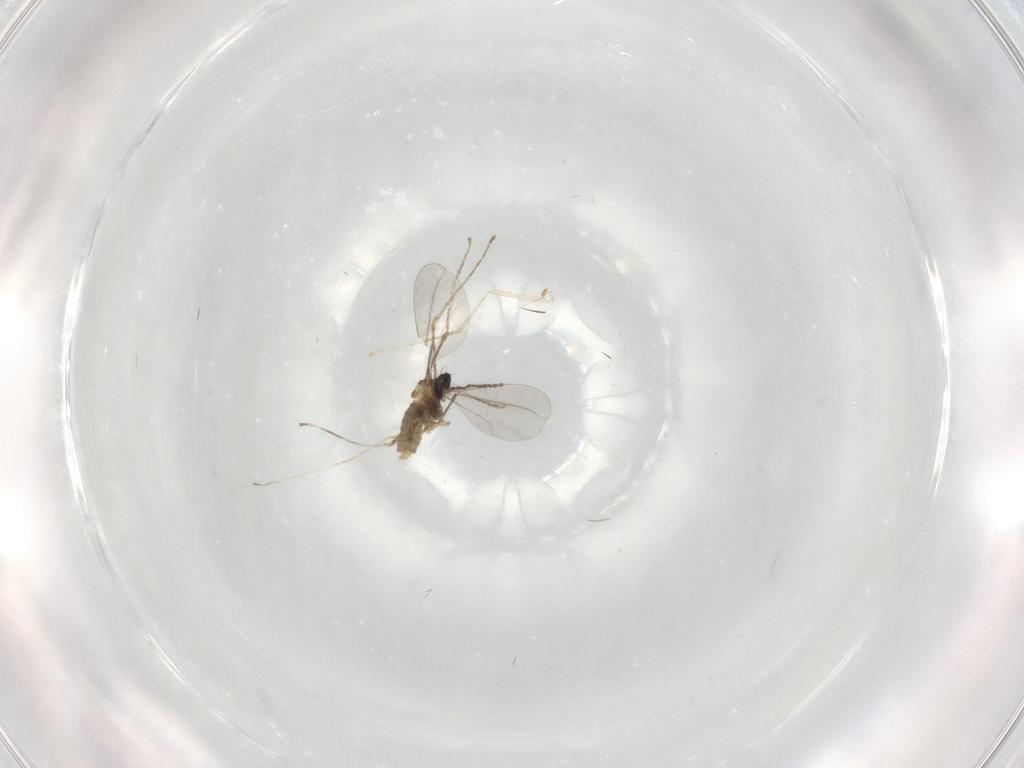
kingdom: Animalia
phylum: Arthropoda
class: Insecta
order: Diptera
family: Cecidomyiidae
